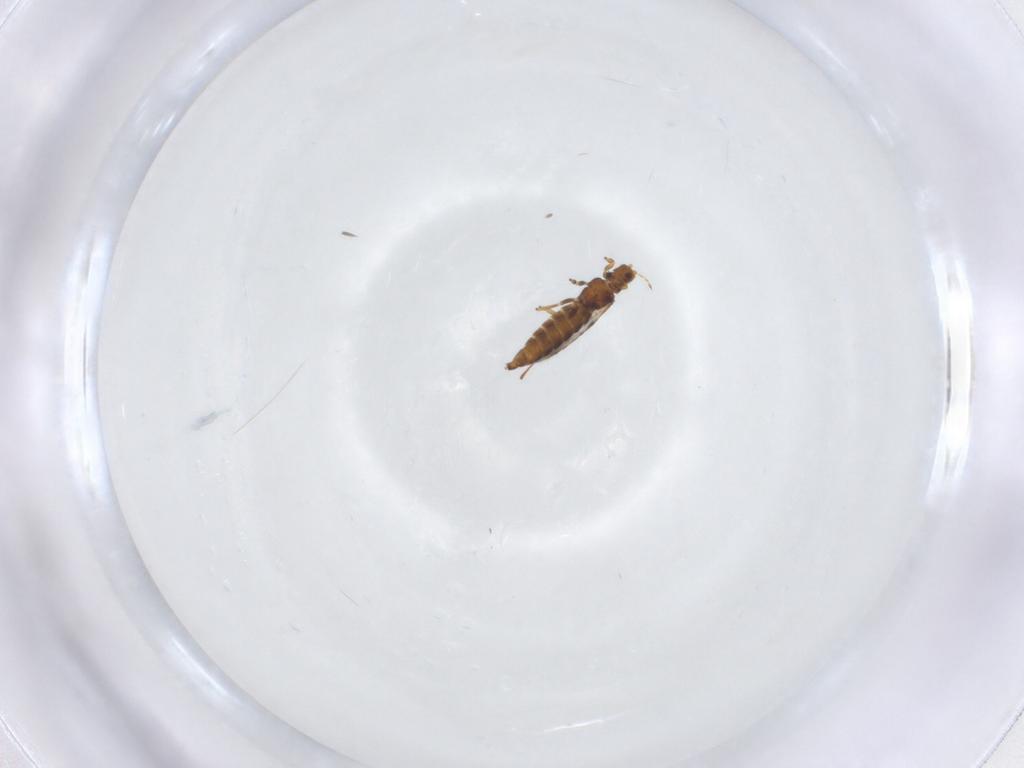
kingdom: Animalia
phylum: Arthropoda
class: Insecta
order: Thysanoptera
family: Thripidae
